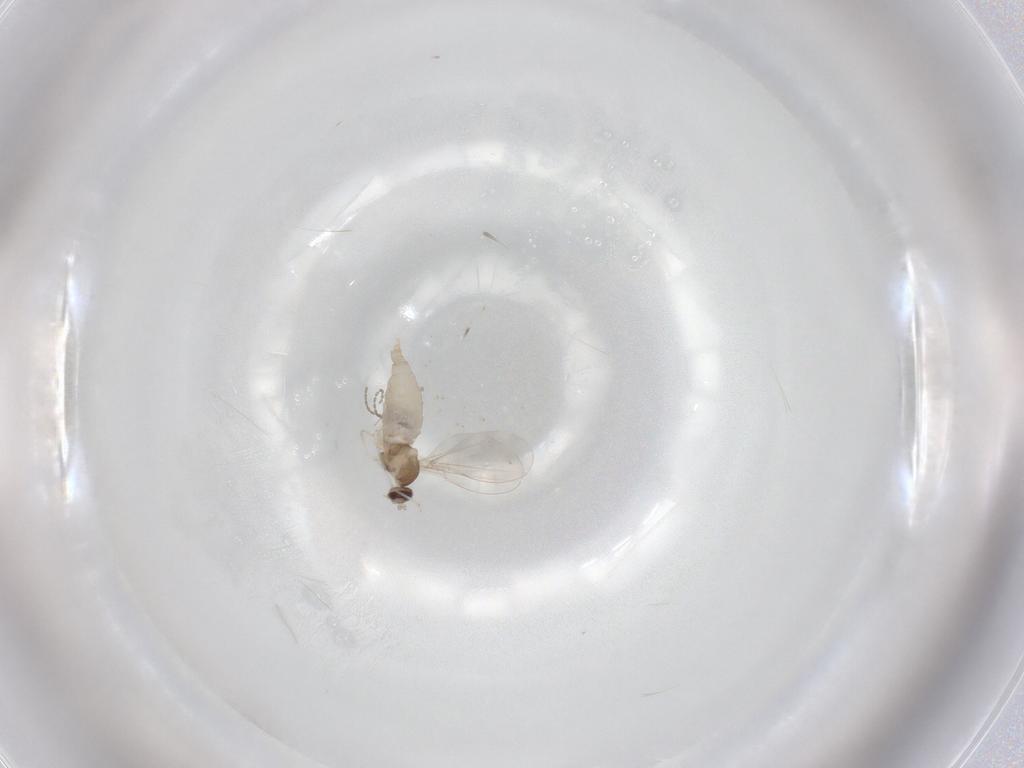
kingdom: Animalia
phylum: Arthropoda
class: Insecta
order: Diptera
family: Cecidomyiidae
